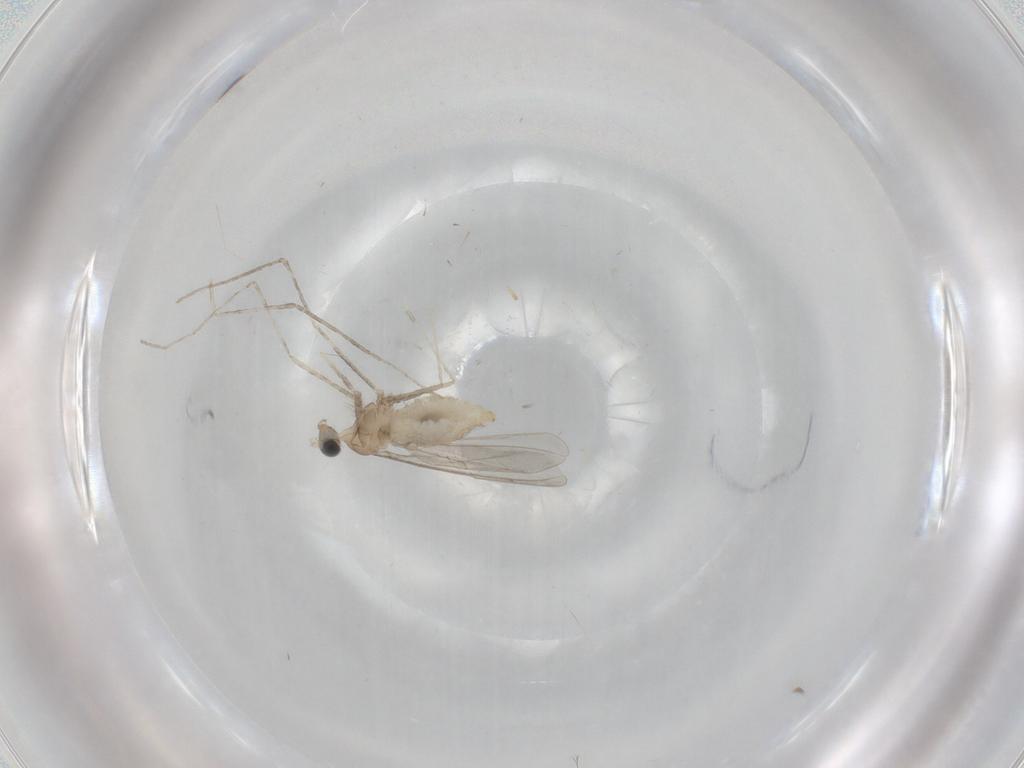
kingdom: Animalia
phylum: Arthropoda
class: Insecta
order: Diptera
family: Cecidomyiidae
